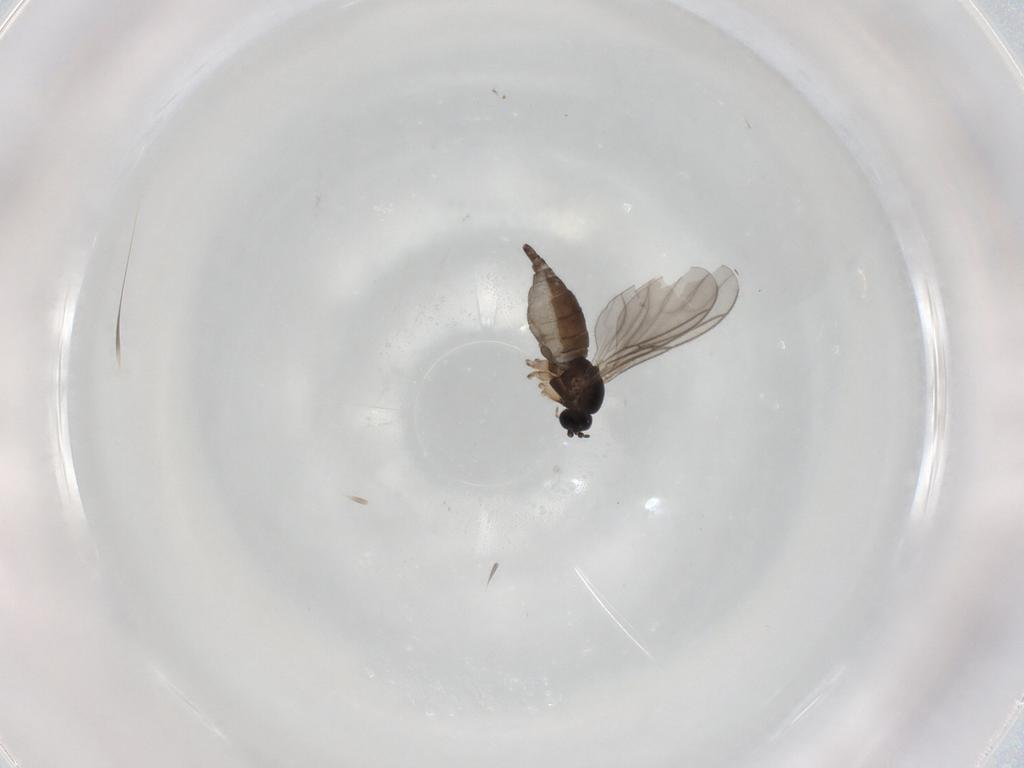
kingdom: Animalia
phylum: Arthropoda
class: Insecta
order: Diptera
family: Sciaridae
